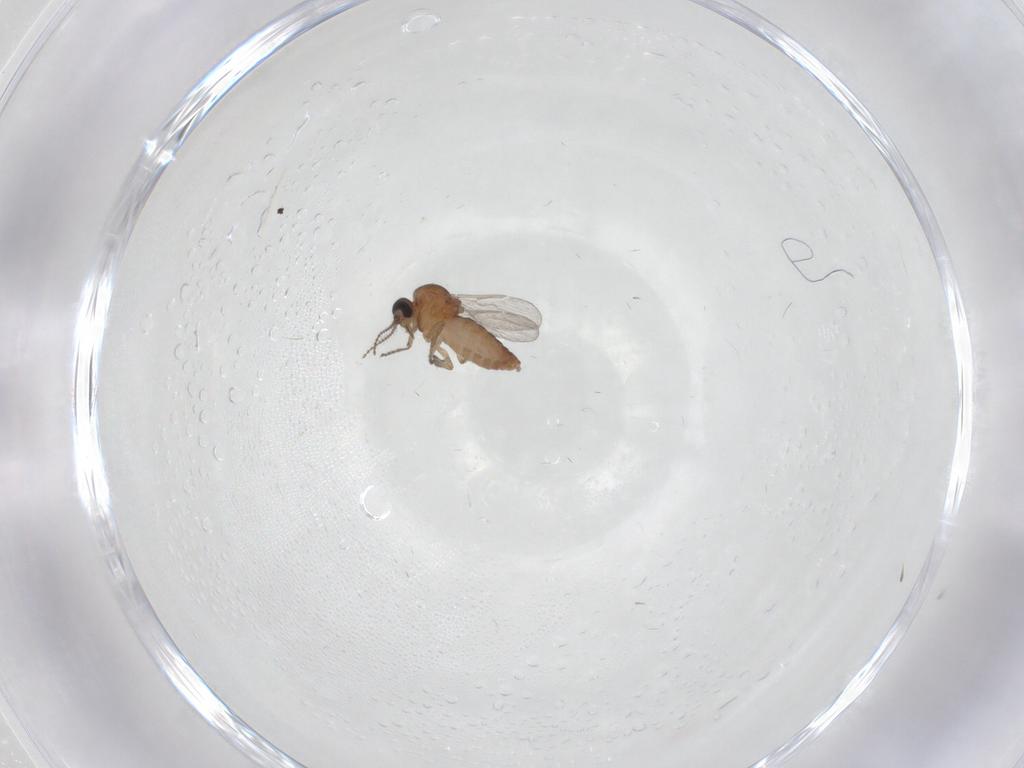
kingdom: Animalia
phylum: Arthropoda
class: Insecta
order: Diptera
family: Ceratopogonidae
